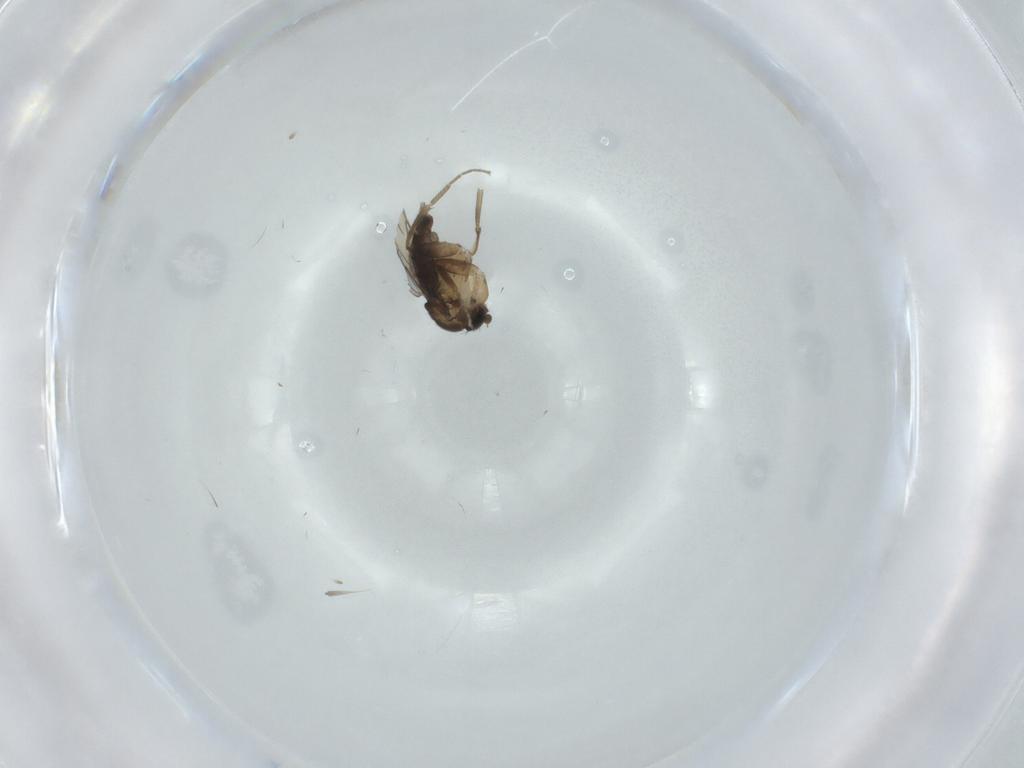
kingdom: Animalia
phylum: Arthropoda
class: Insecta
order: Diptera
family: Phoridae
